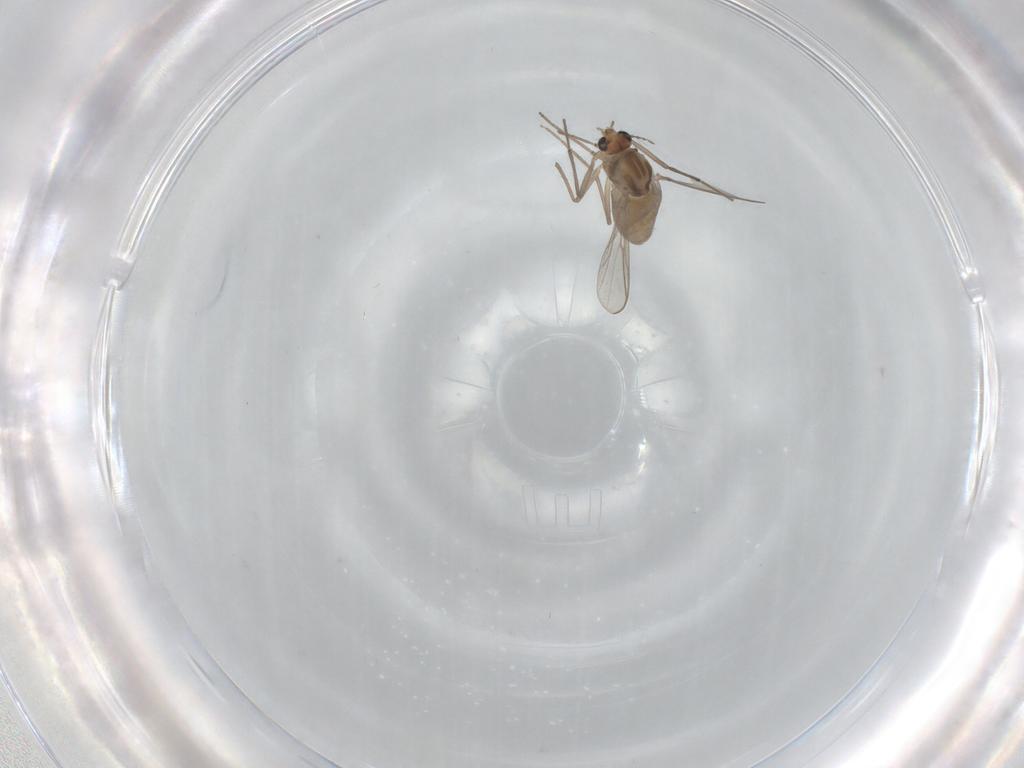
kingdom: Animalia
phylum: Arthropoda
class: Insecta
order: Diptera
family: Chironomidae
